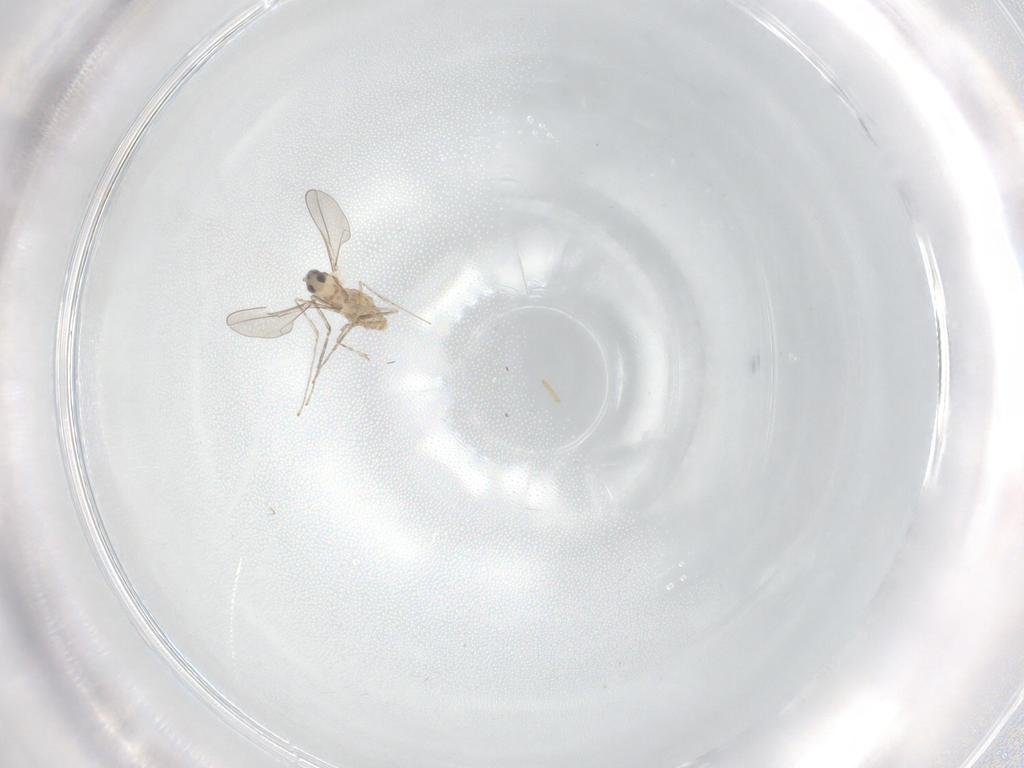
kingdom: Animalia
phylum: Arthropoda
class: Insecta
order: Diptera
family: Cecidomyiidae
